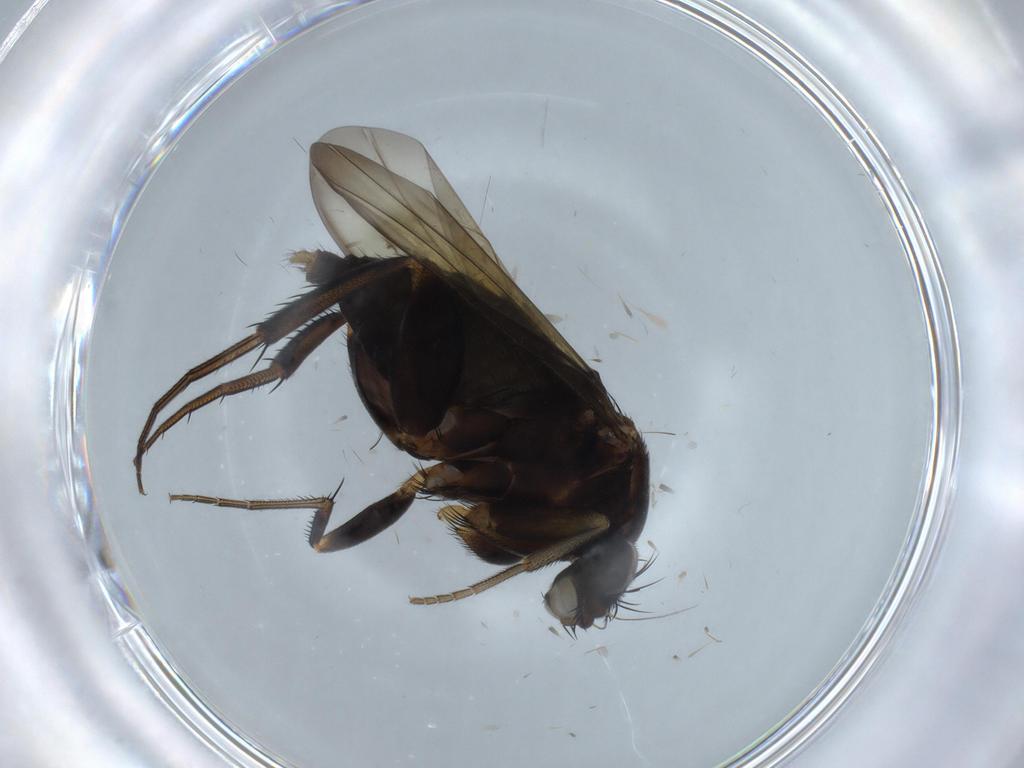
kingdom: Animalia
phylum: Arthropoda
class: Insecta
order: Diptera
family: Phoridae
